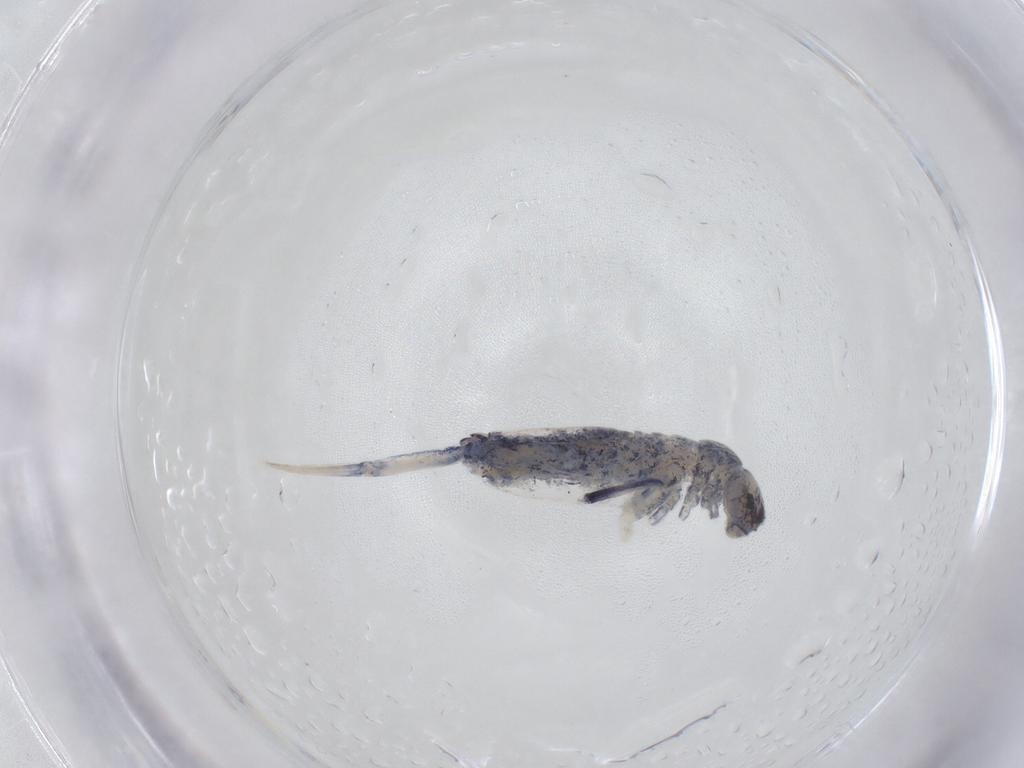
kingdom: Animalia
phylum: Arthropoda
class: Collembola
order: Entomobryomorpha
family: Entomobryidae
